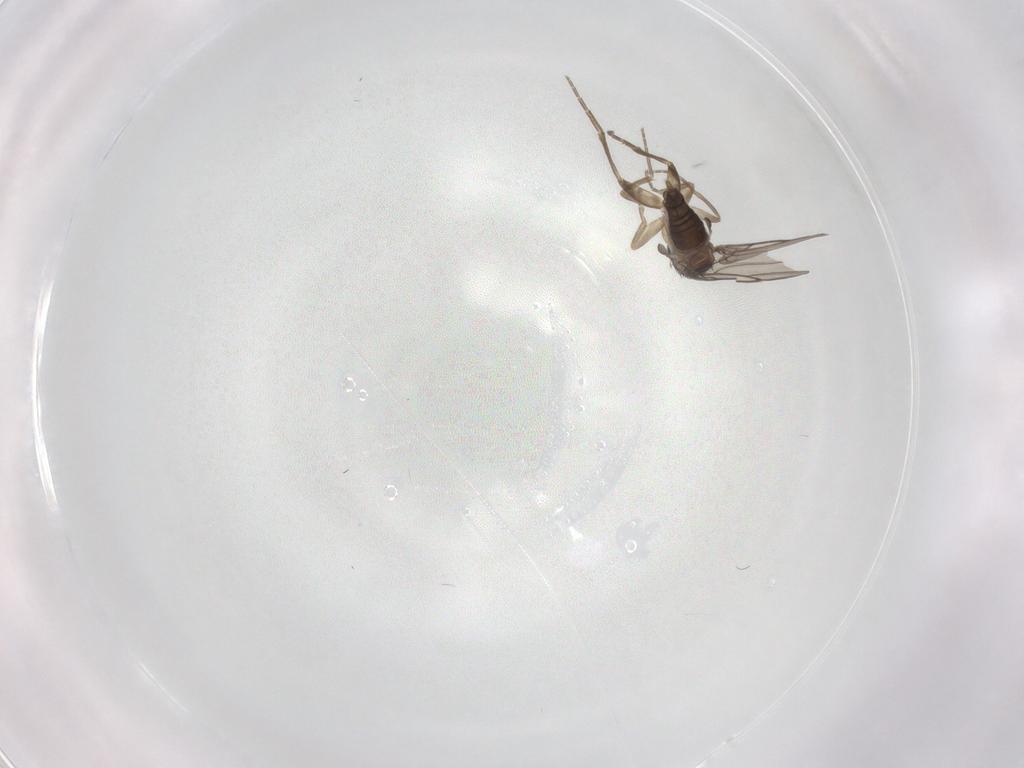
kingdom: Animalia
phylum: Arthropoda
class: Insecta
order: Diptera
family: Phoridae
